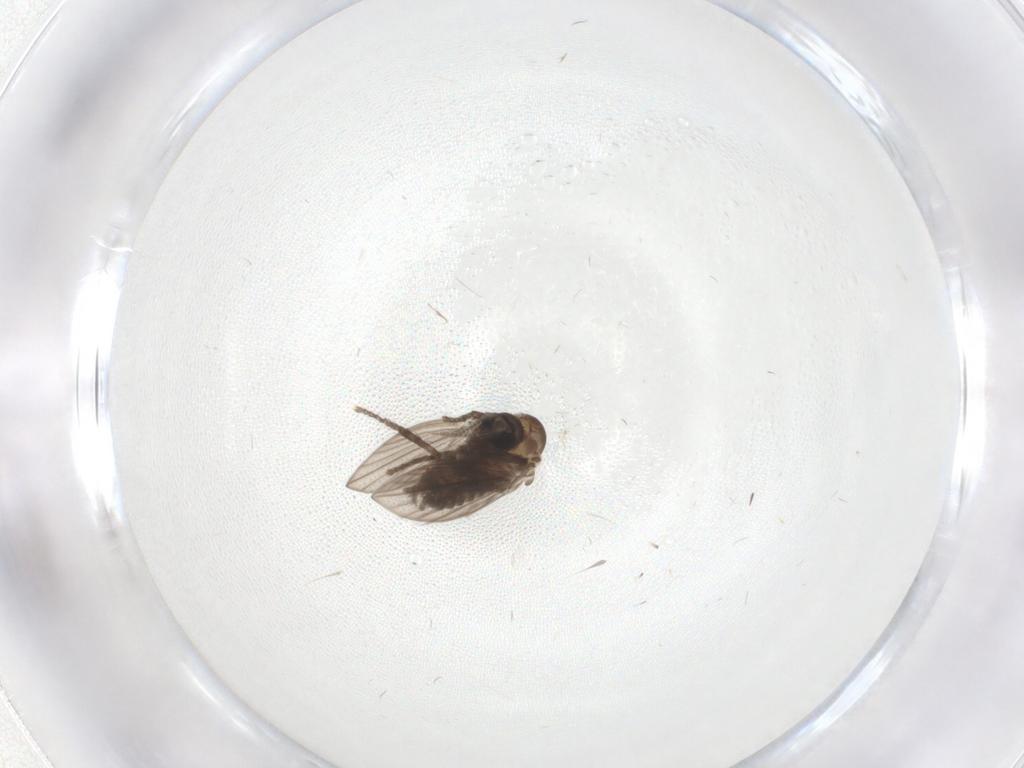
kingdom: Animalia
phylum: Arthropoda
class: Insecta
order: Diptera
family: Psychodidae
